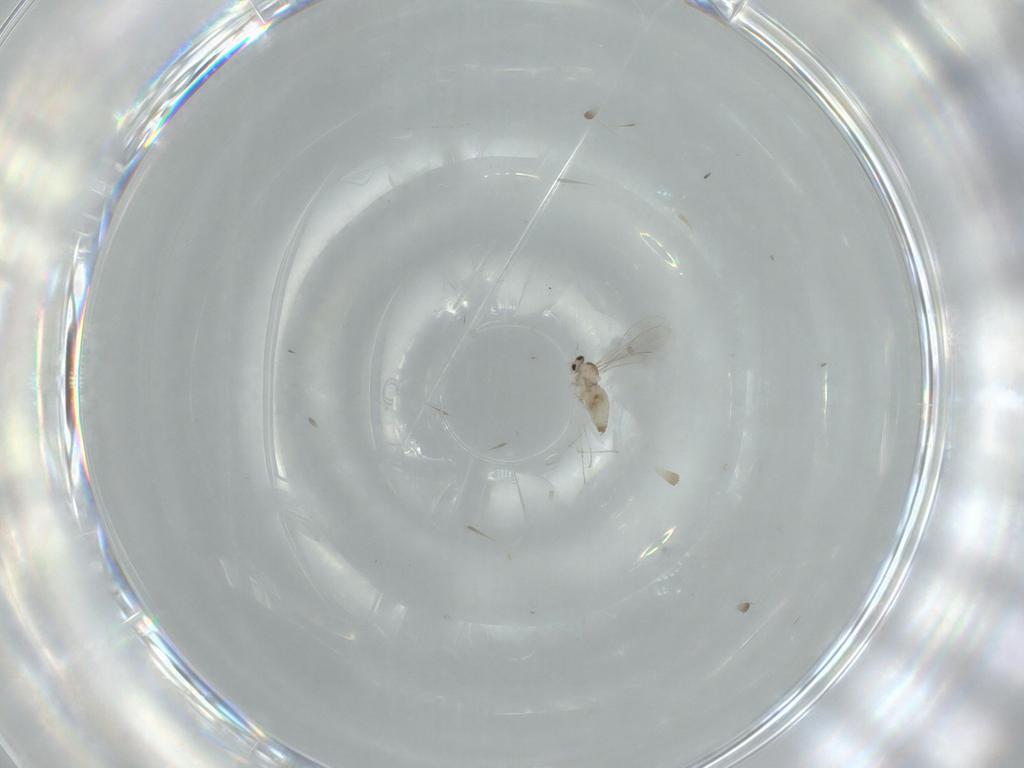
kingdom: Animalia
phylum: Arthropoda
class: Insecta
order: Diptera
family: Cecidomyiidae
